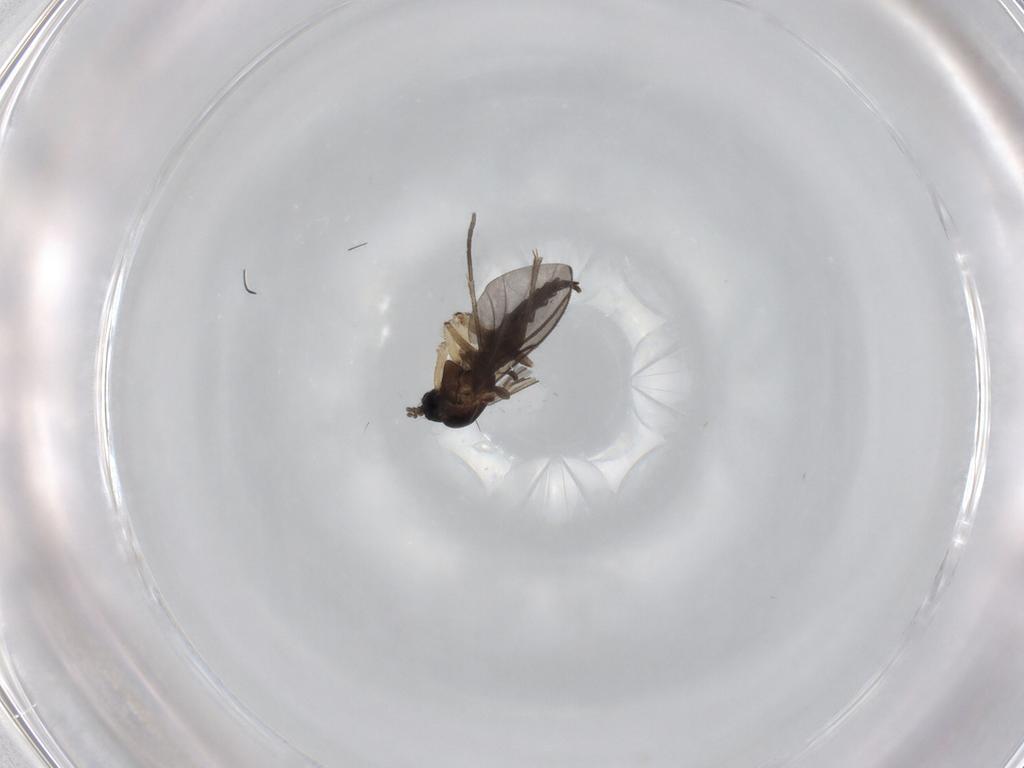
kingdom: Animalia
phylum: Arthropoda
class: Insecta
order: Diptera
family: Sciaridae
